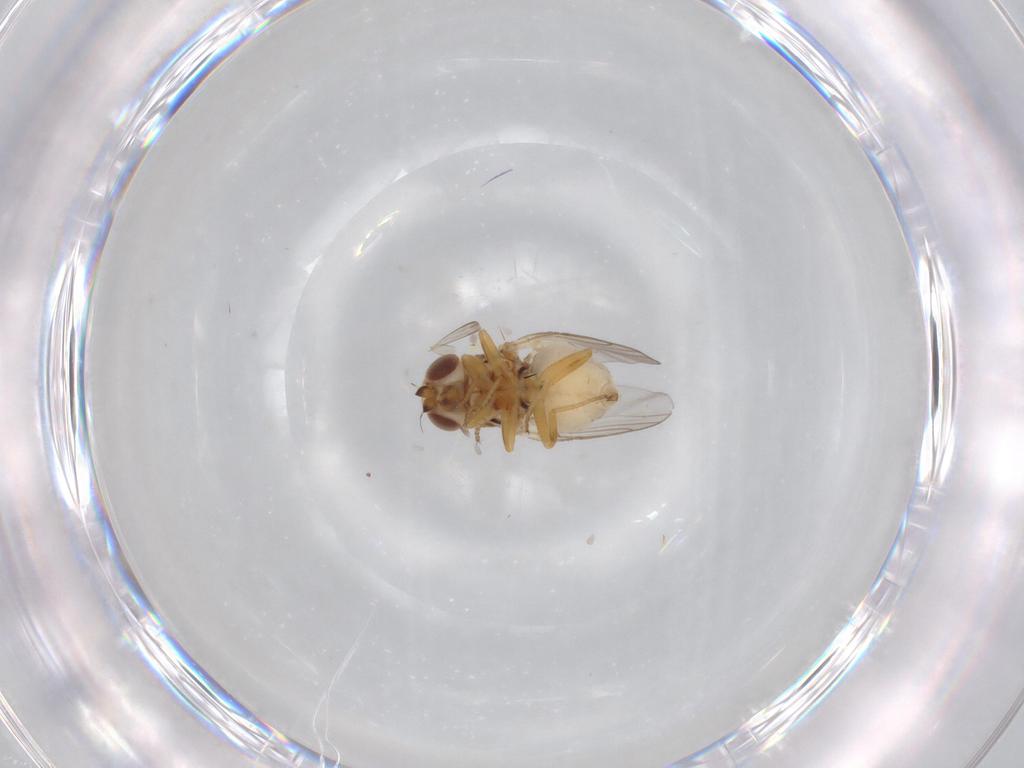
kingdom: Animalia
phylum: Arthropoda
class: Insecta
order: Diptera
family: Chloropidae
